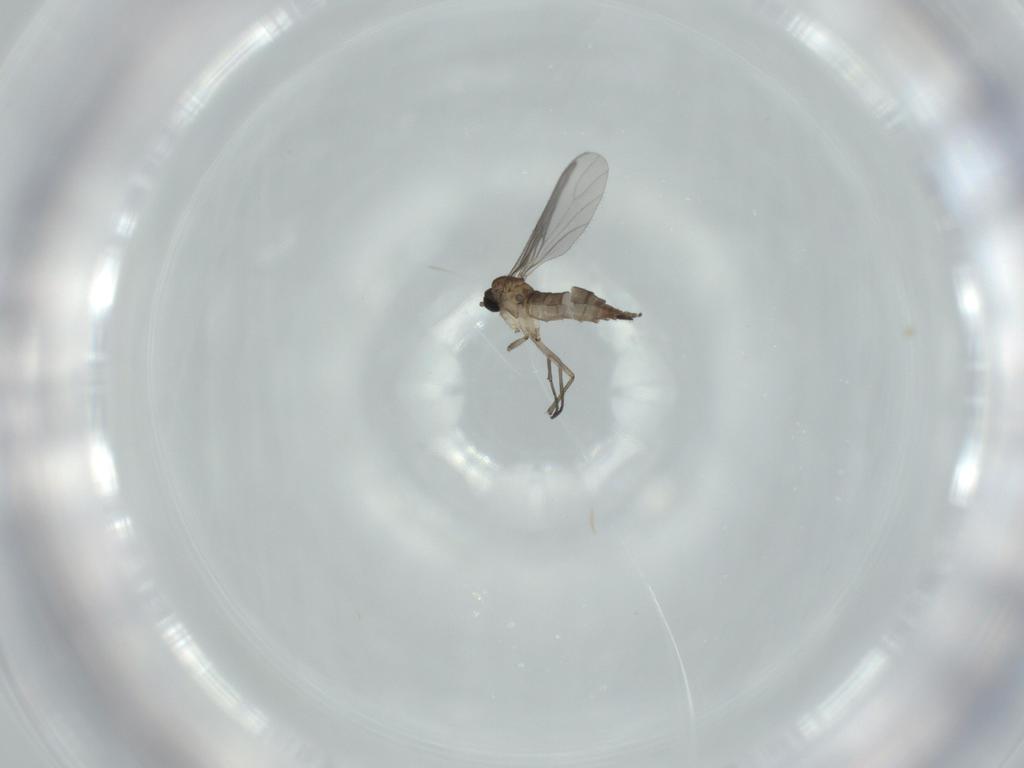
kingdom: Animalia
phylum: Arthropoda
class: Insecta
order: Diptera
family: Sciaridae
